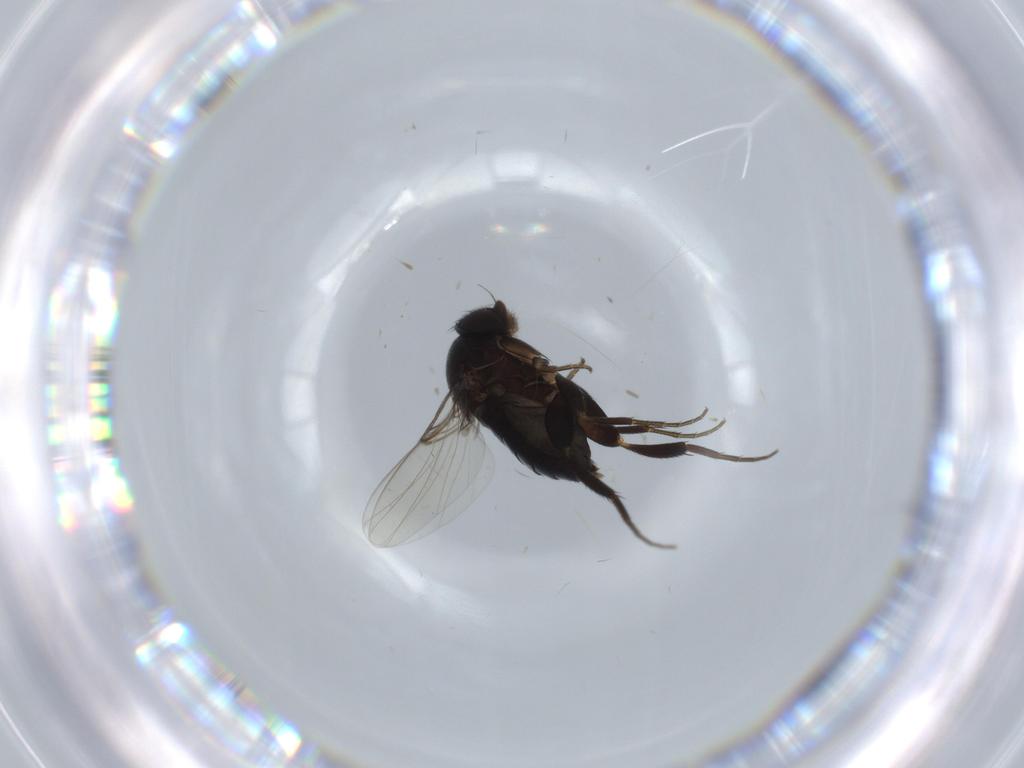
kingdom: Animalia
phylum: Arthropoda
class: Insecta
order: Diptera
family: Phoridae
